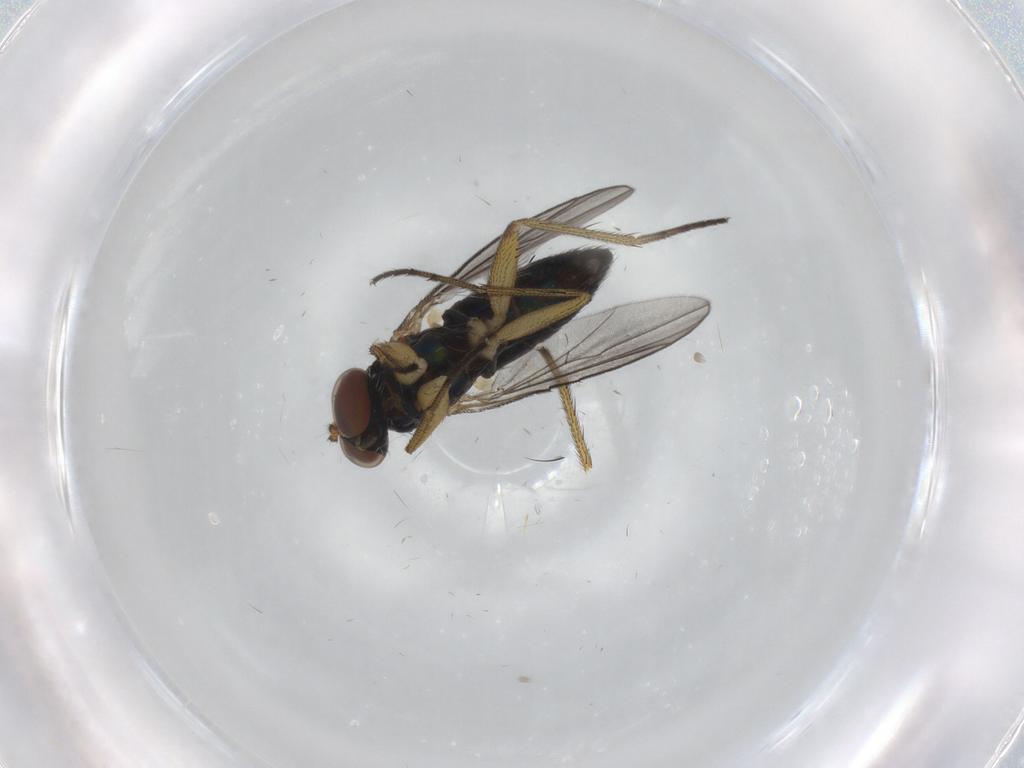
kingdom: Animalia
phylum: Arthropoda
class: Insecta
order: Diptera
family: Dolichopodidae
